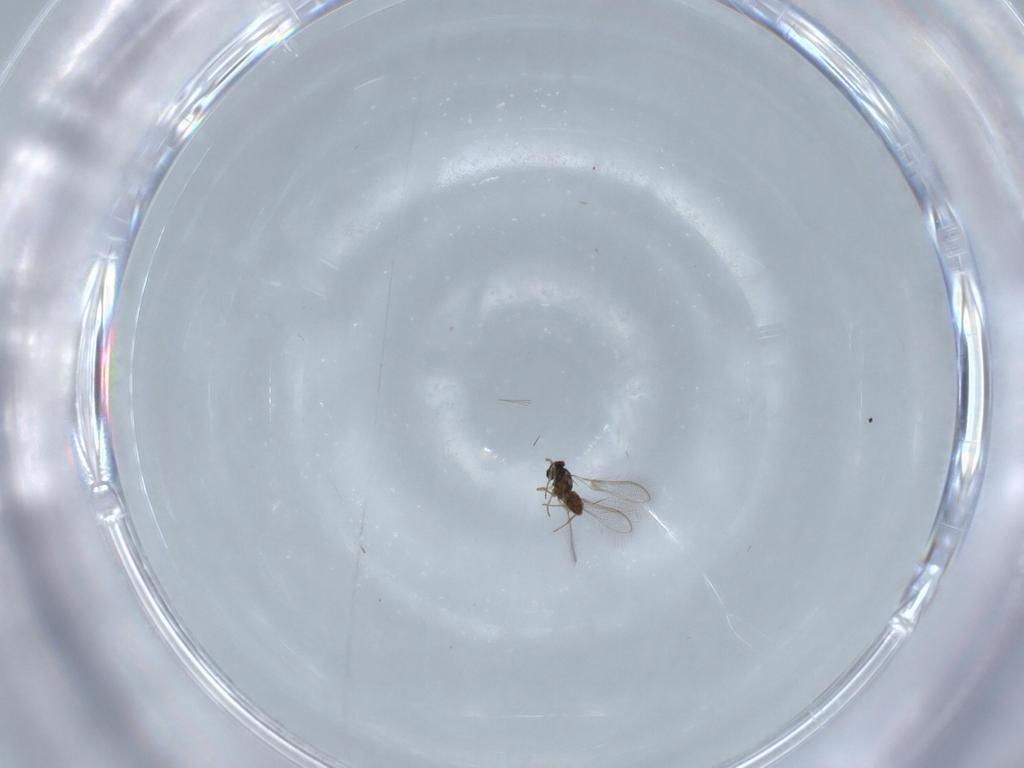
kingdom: Animalia
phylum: Arthropoda
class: Insecta
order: Hymenoptera
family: Mymaridae
